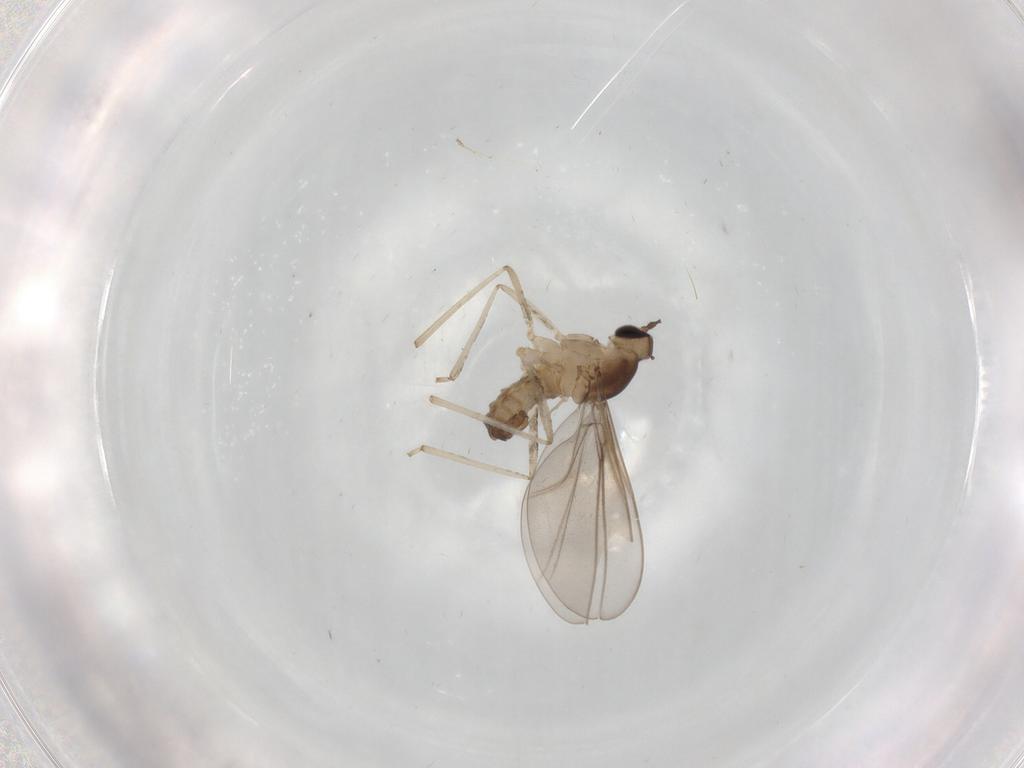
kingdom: Animalia
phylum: Arthropoda
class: Insecta
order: Diptera
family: Cecidomyiidae
